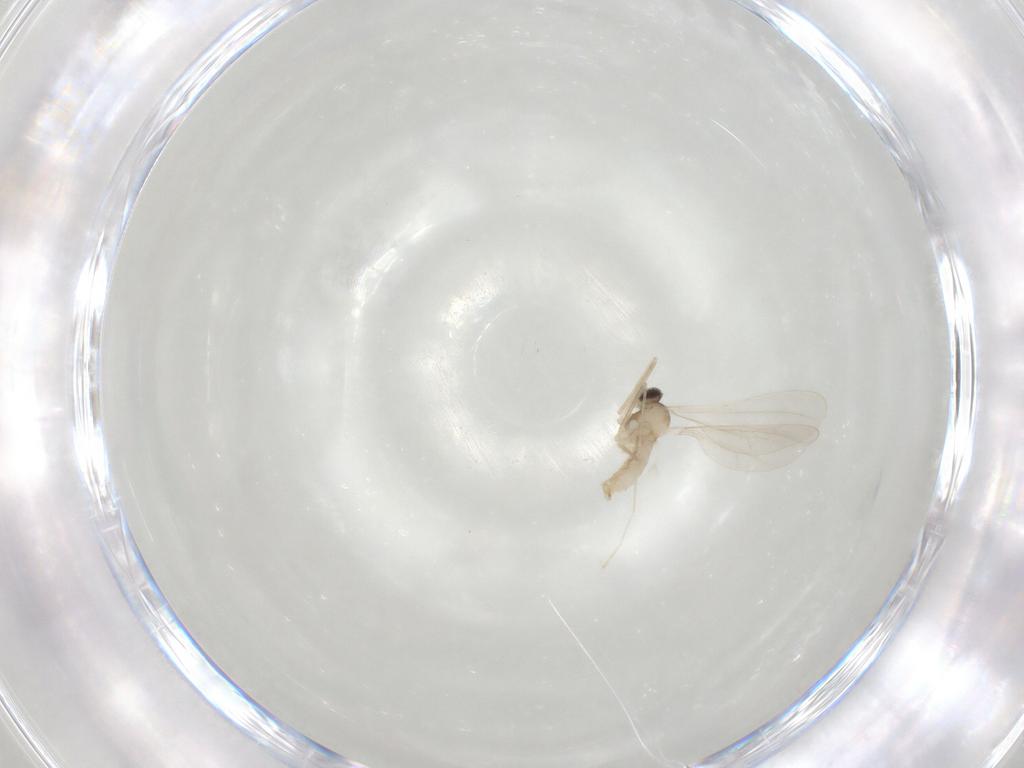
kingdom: Animalia
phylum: Arthropoda
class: Insecta
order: Diptera
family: Cecidomyiidae
